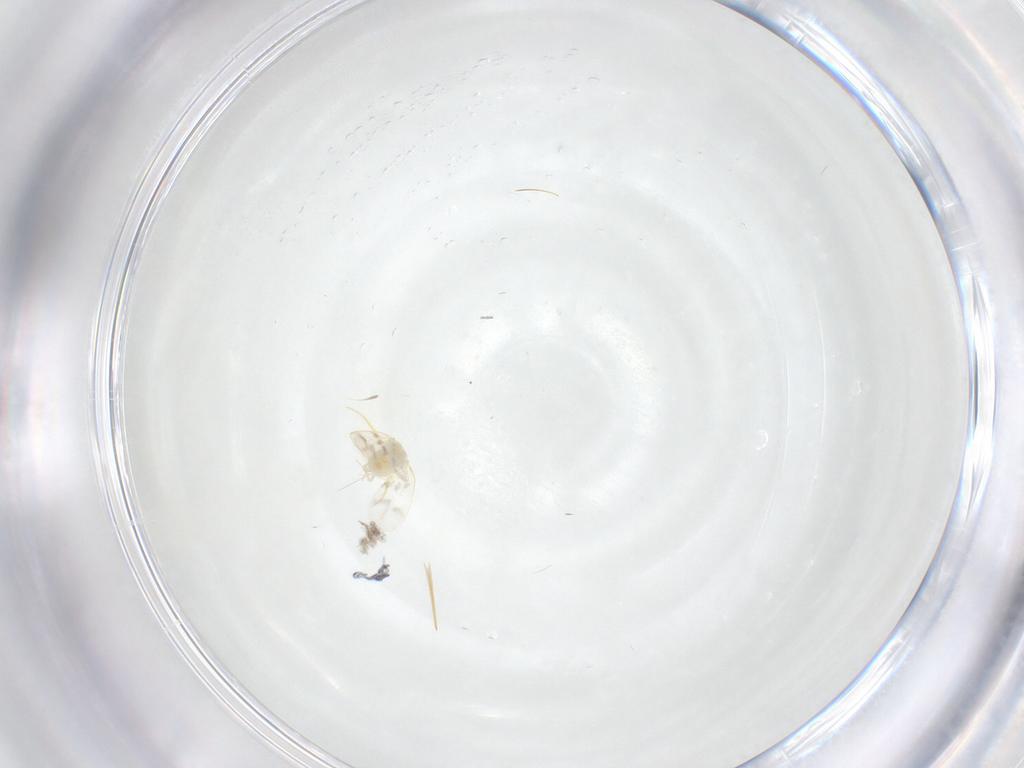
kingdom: Animalia
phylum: Arthropoda
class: Insecta
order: Hemiptera
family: Aleyrodidae
